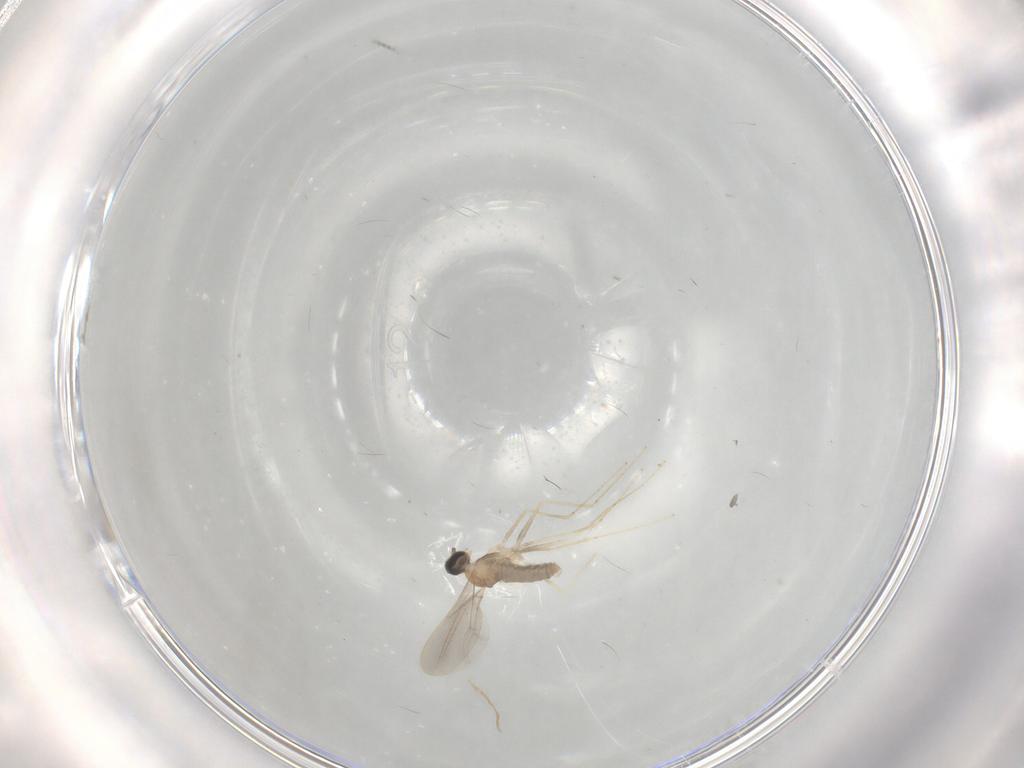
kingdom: Animalia
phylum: Arthropoda
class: Insecta
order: Diptera
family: Cecidomyiidae
